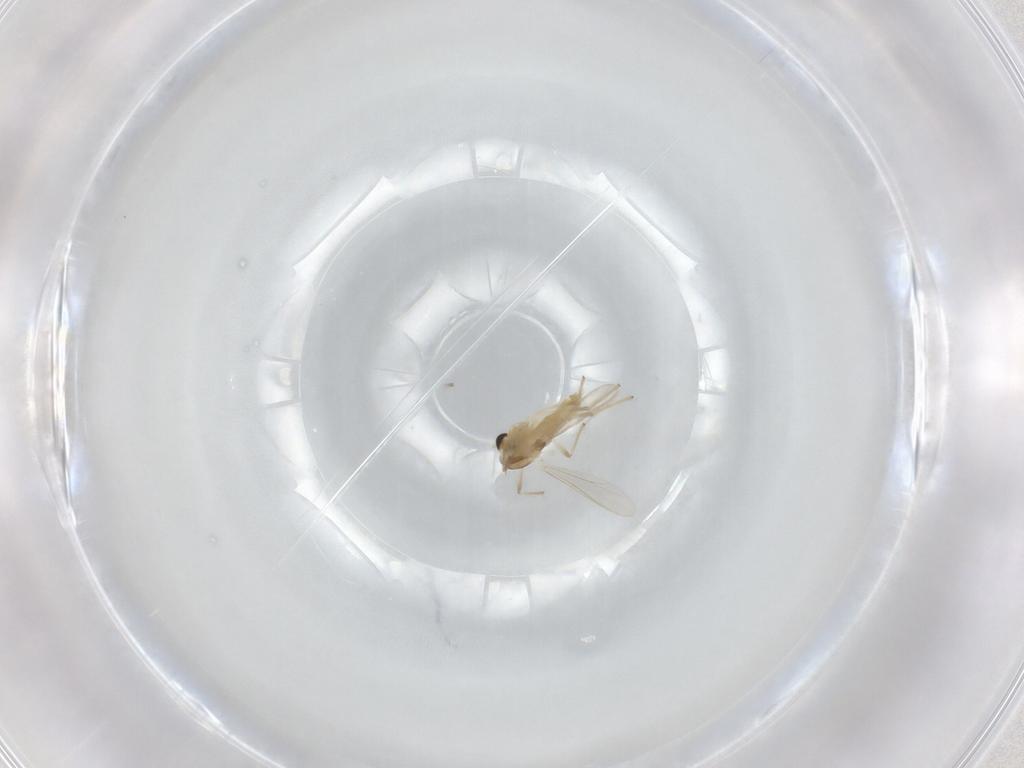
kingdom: Animalia
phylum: Arthropoda
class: Insecta
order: Diptera
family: Chironomidae
